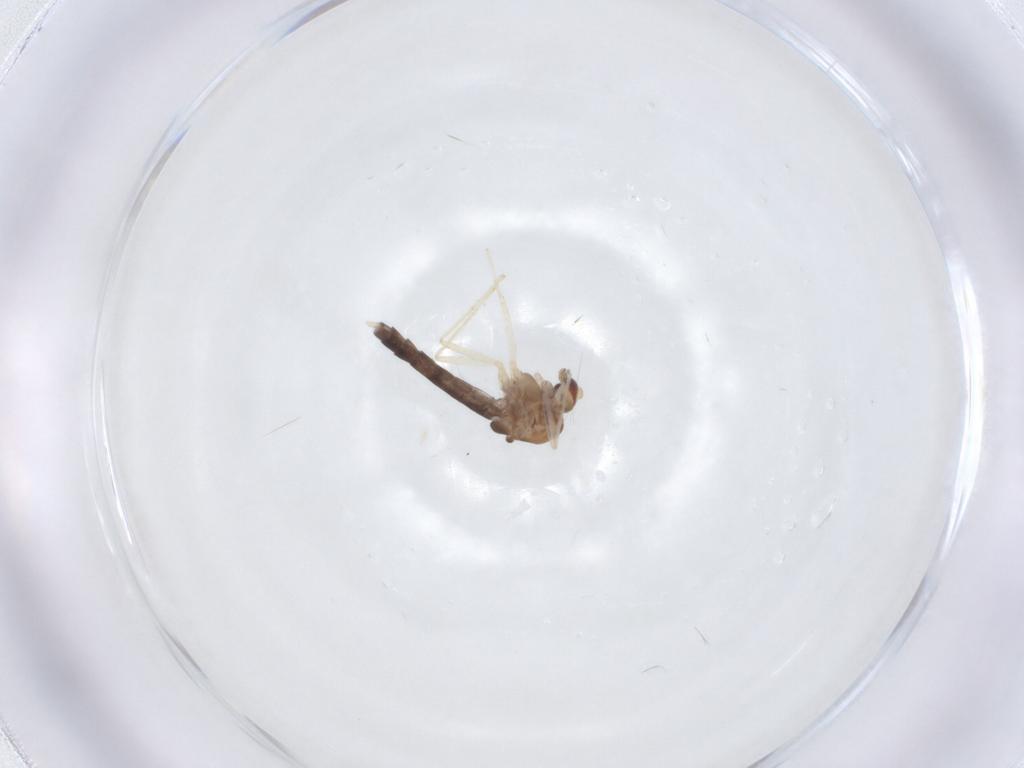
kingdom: Animalia
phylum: Arthropoda
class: Insecta
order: Diptera
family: Chironomidae
